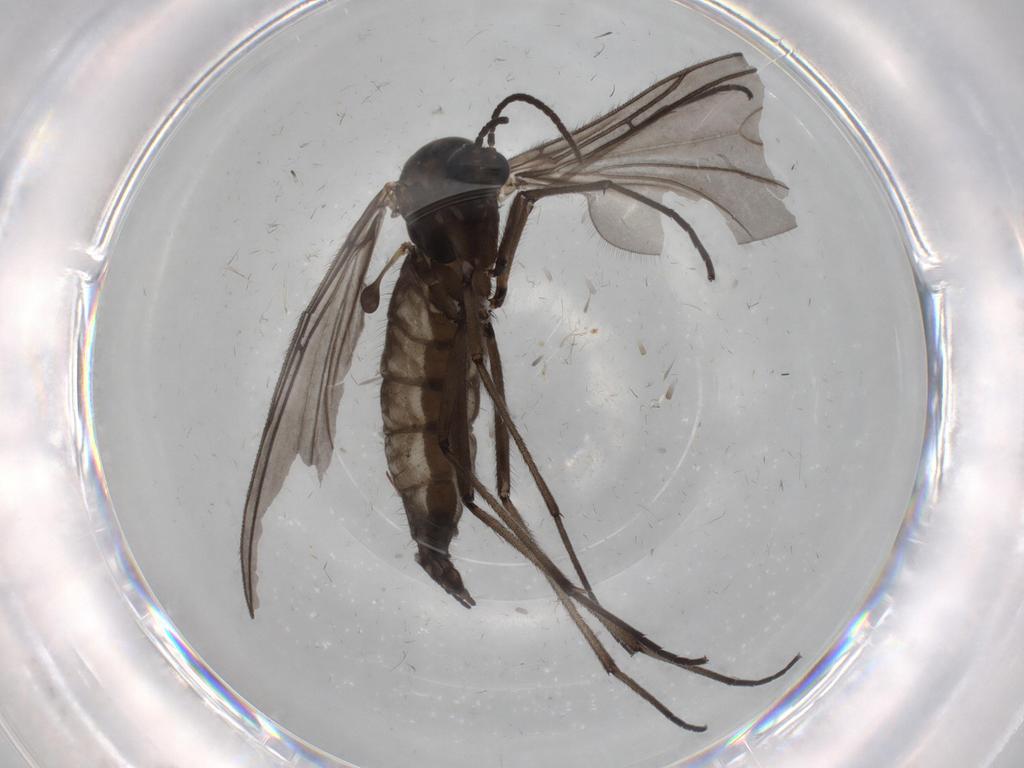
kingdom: Animalia
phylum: Arthropoda
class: Insecta
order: Diptera
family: Sciaridae
